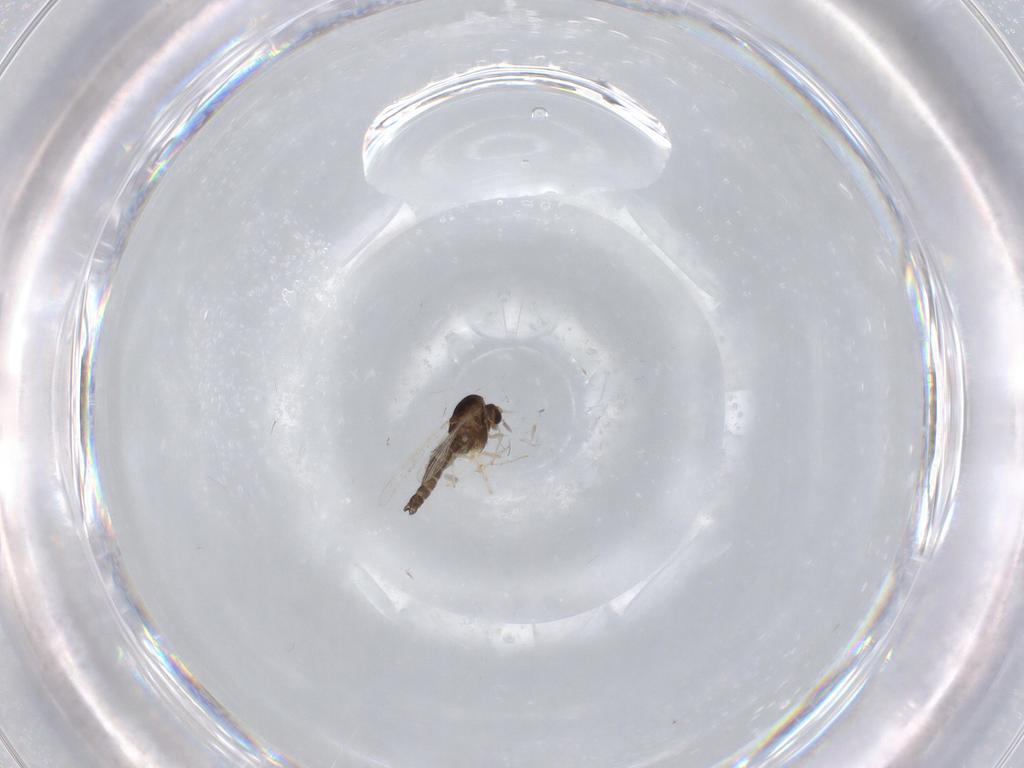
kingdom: Animalia
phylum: Arthropoda
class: Insecta
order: Diptera
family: Chironomidae
